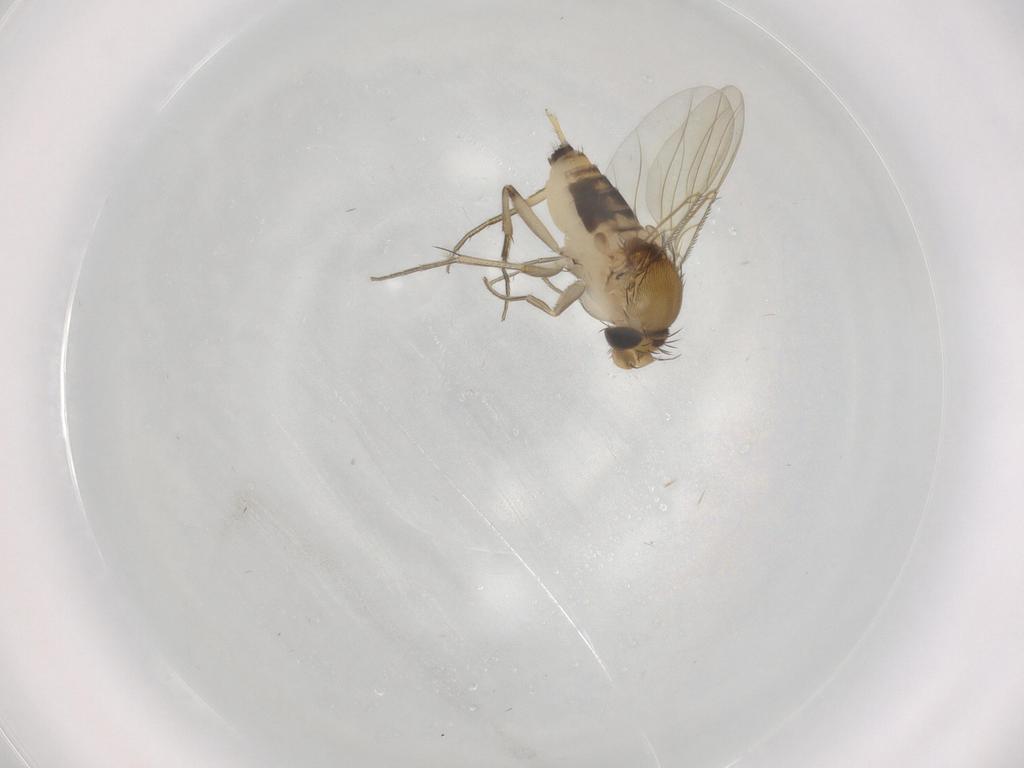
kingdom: Animalia
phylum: Arthropoda
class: Insecta
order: Diptera
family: Phoridae
